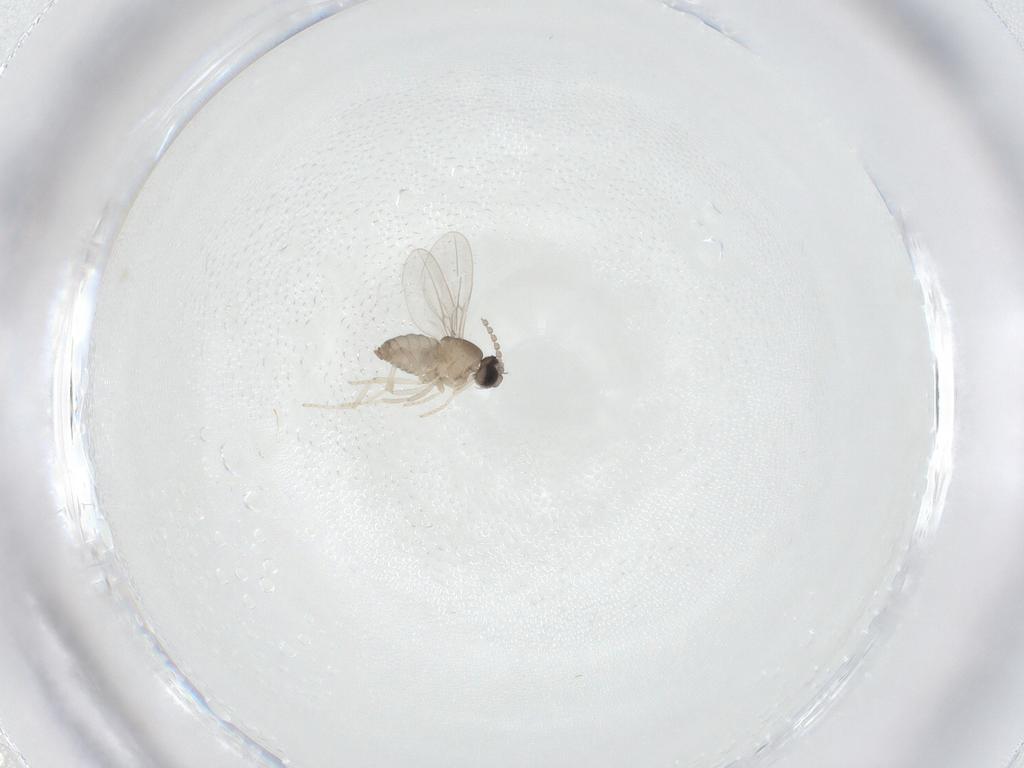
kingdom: Animalia
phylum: Arthropoda
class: Insecta
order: Diptera
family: Cecidomyiidae
